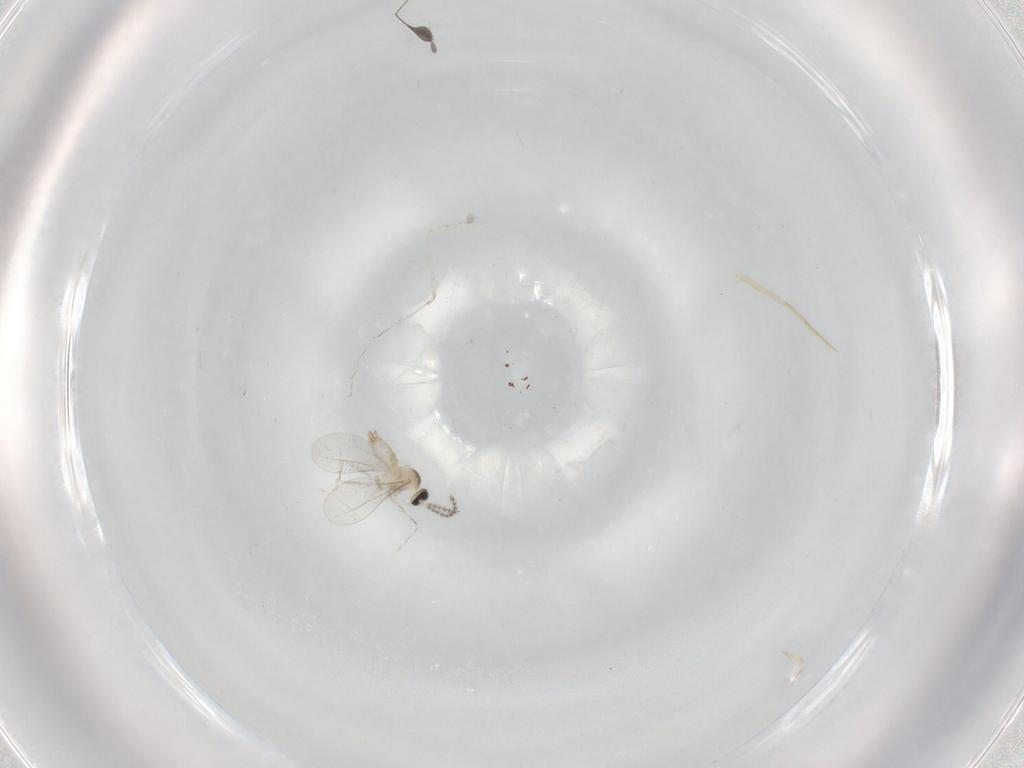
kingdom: Animalia
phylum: Arthropoda
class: Insecta
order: Diptera
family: Cecidomyiidae
